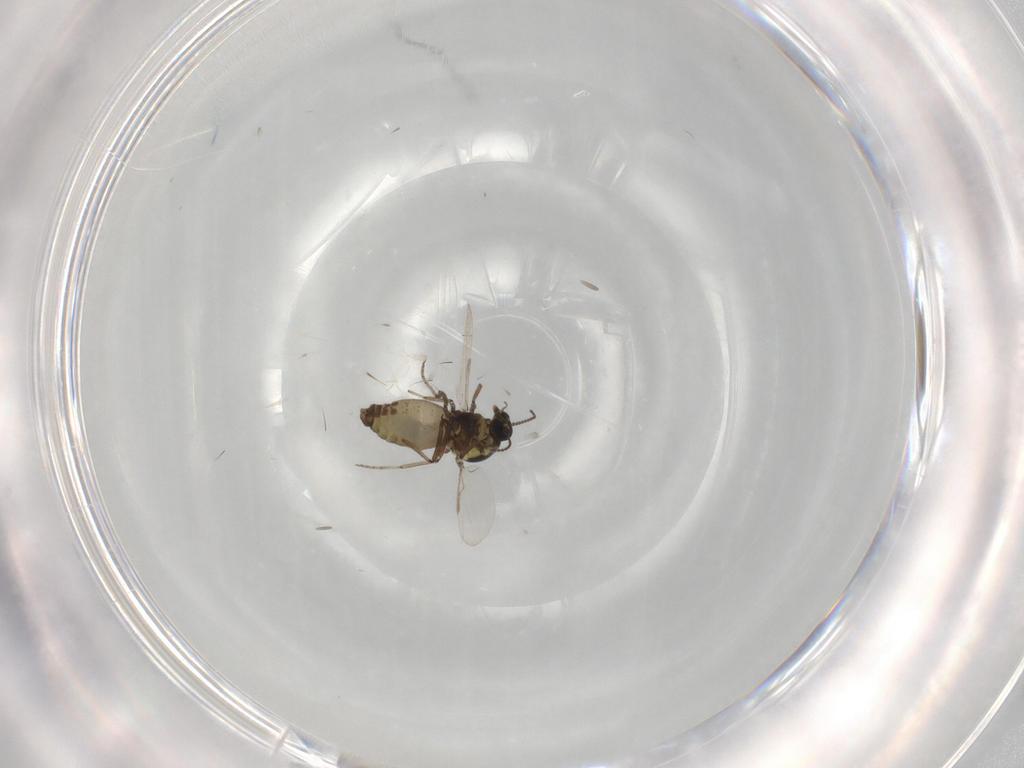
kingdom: Animalia
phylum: Arthropoda
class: Insecta
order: Diptera
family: Ceratopogonidae
